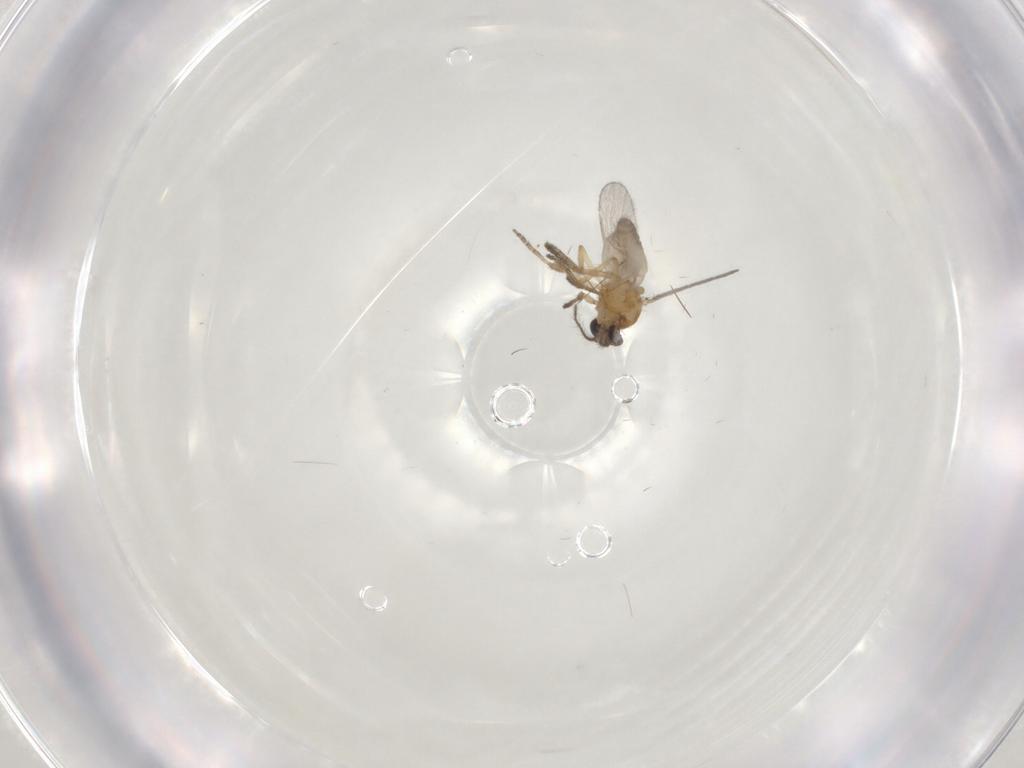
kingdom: Animalia
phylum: Arthropoda
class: Insecta
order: Diptera
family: Ceratopogonidae
